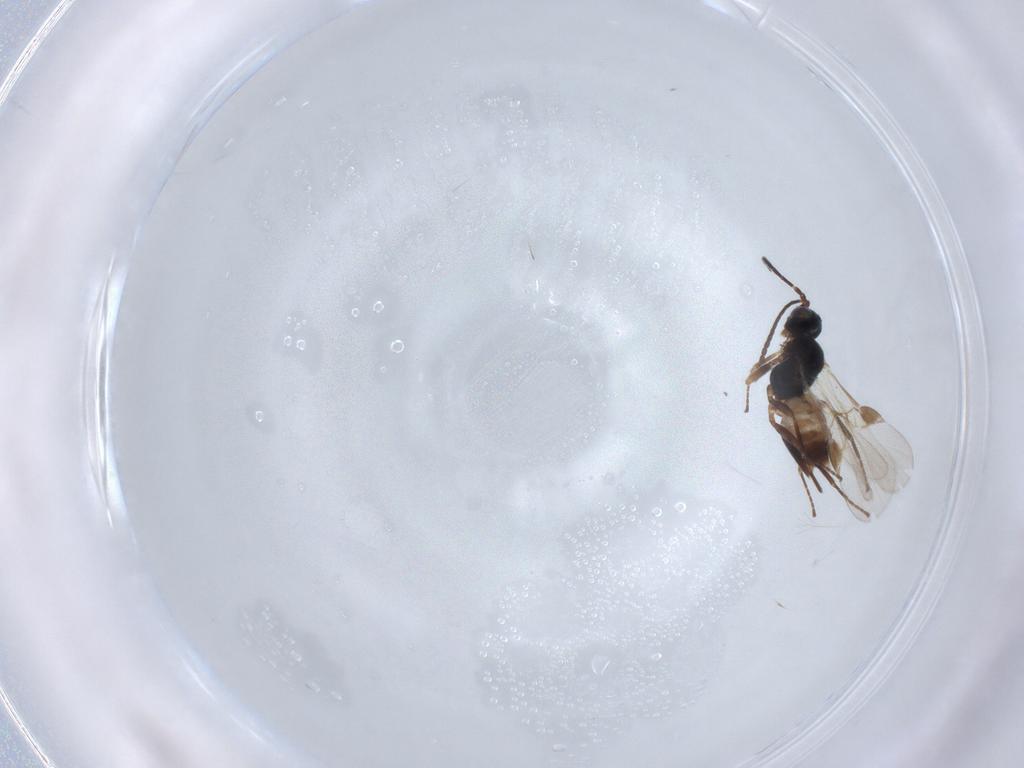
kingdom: Animalia
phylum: Arthropoda
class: Insecta
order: Hymenoptera
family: Braconidae
